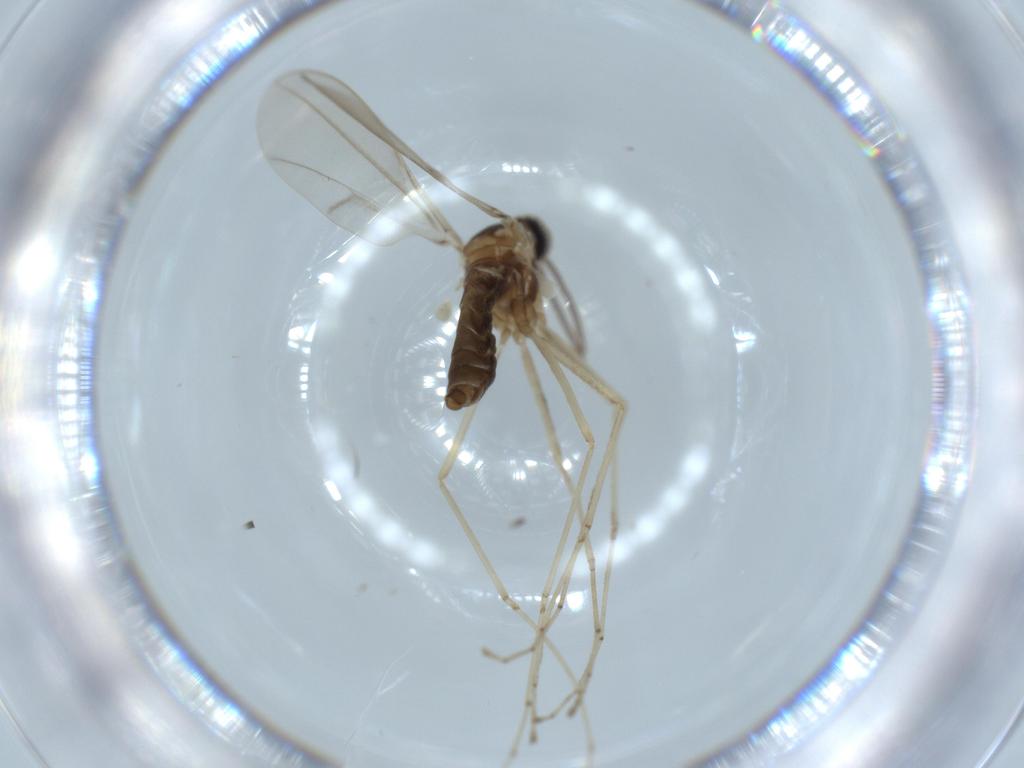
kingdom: Animalia
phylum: Arthropoda
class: Insecta
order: Diptera
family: Cecidomyiidae
